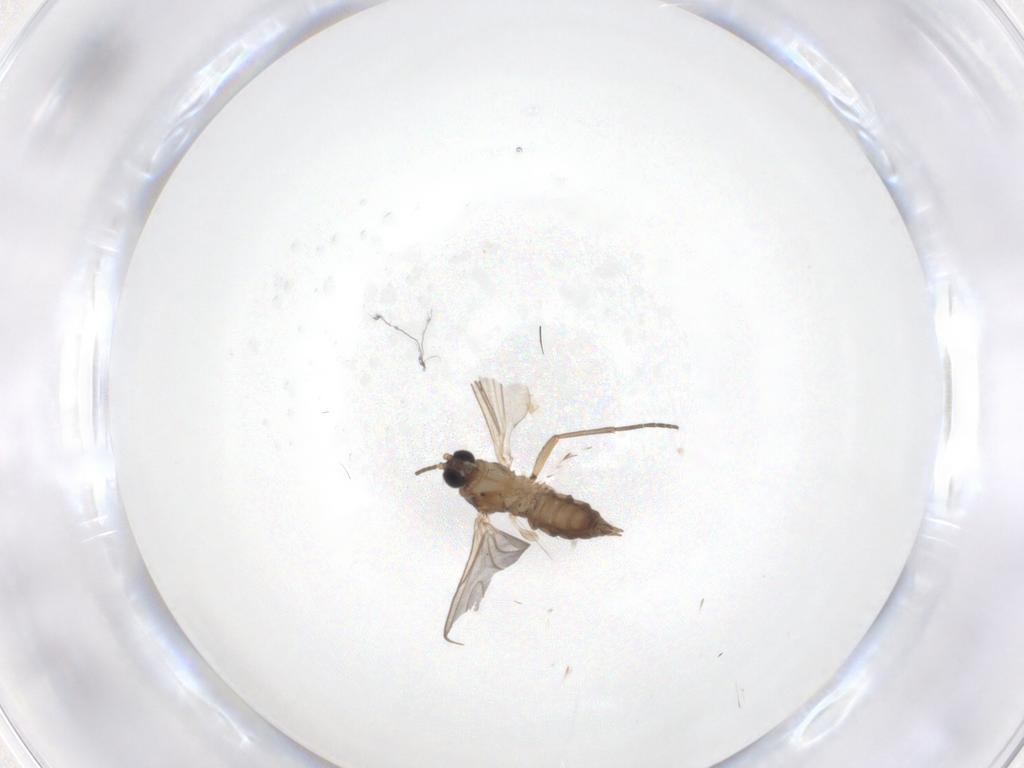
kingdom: Animalia
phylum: Arthropoda
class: Insecta
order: Diptera
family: Sciaridae
